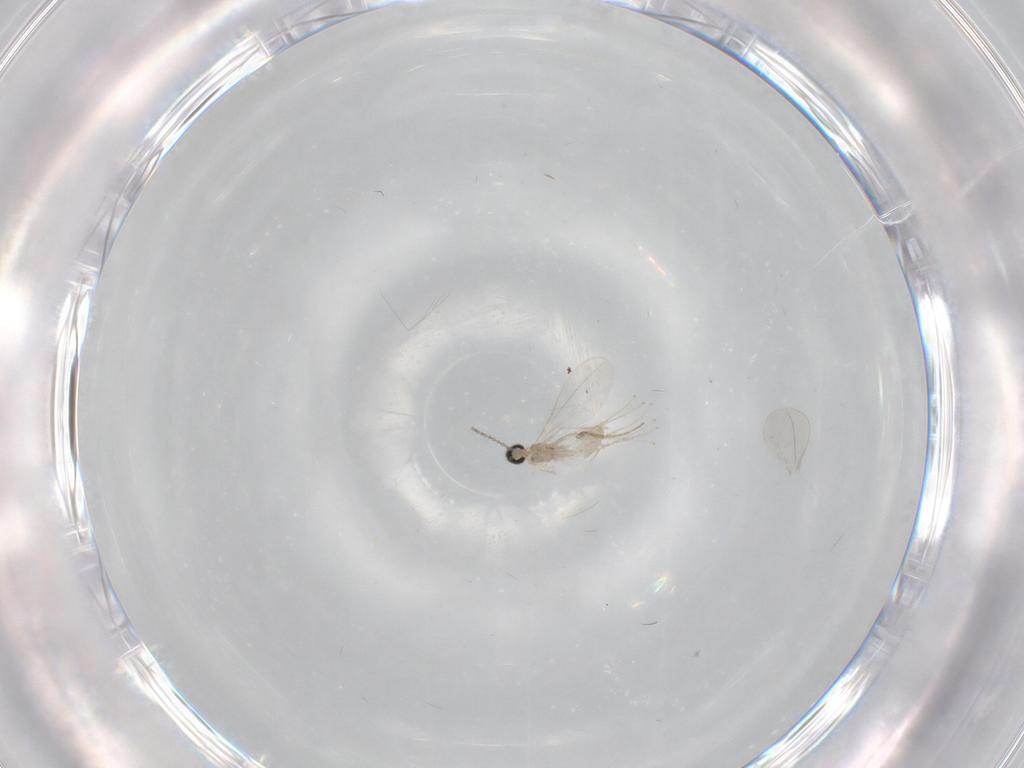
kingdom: Animalia
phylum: Arthropoda
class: Insecta
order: Diptera
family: Chironomidae
